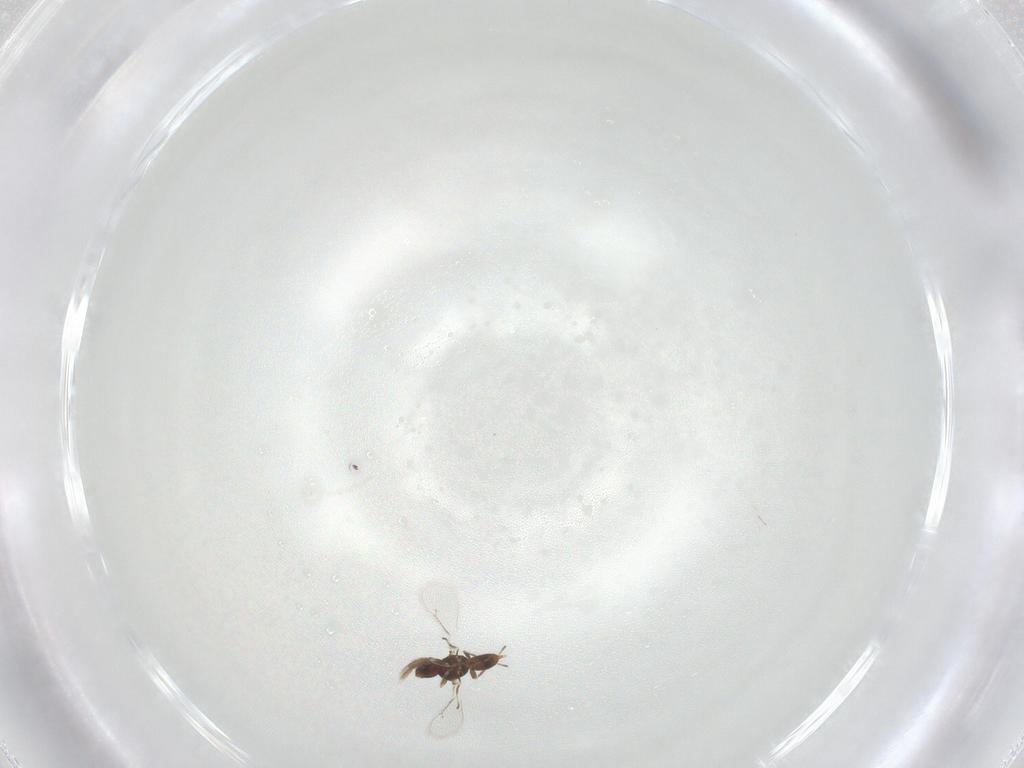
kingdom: Animalia
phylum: Arthropoda
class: Insecta
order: Hymenoptera
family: Eulophidae
